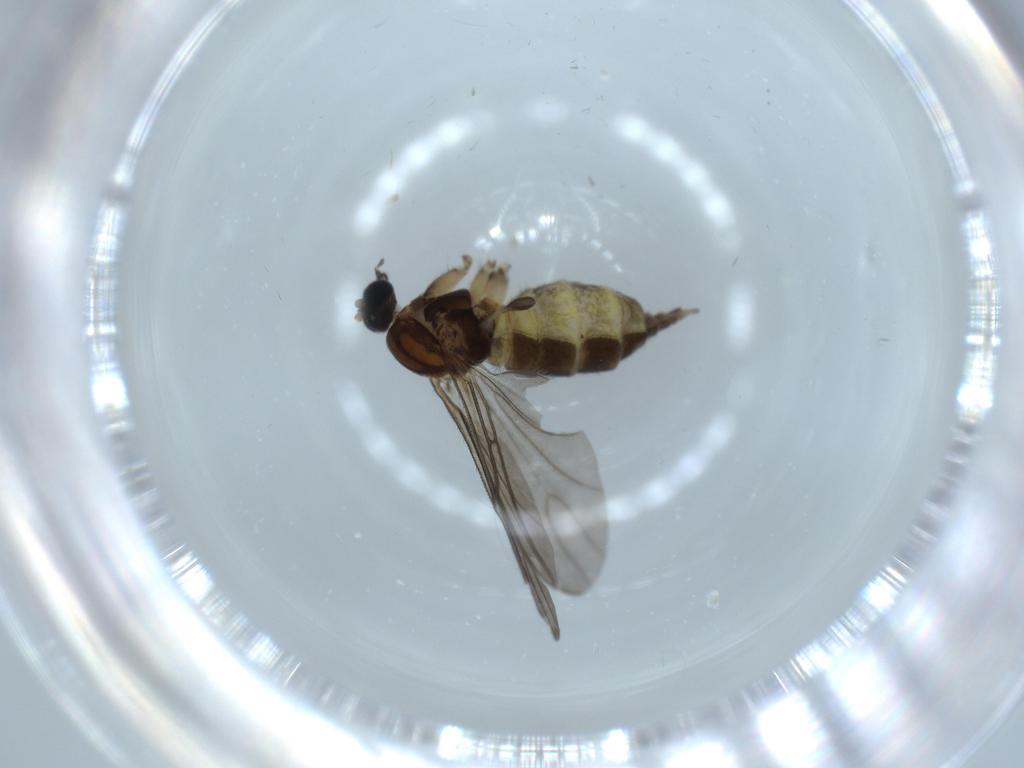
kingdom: Animalia
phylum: Arthropoda
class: Insecta
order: Diptera
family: Sciaridae
